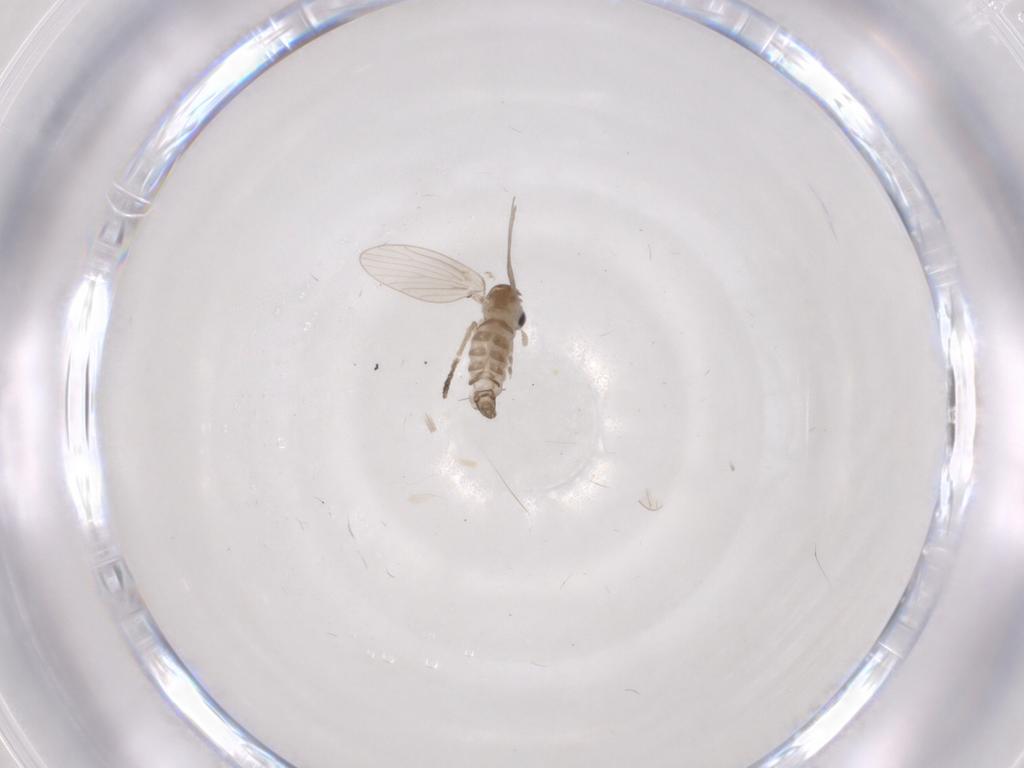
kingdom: Animalia
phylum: Arthropoda
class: Insecta
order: Diptera
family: Psychodidae
